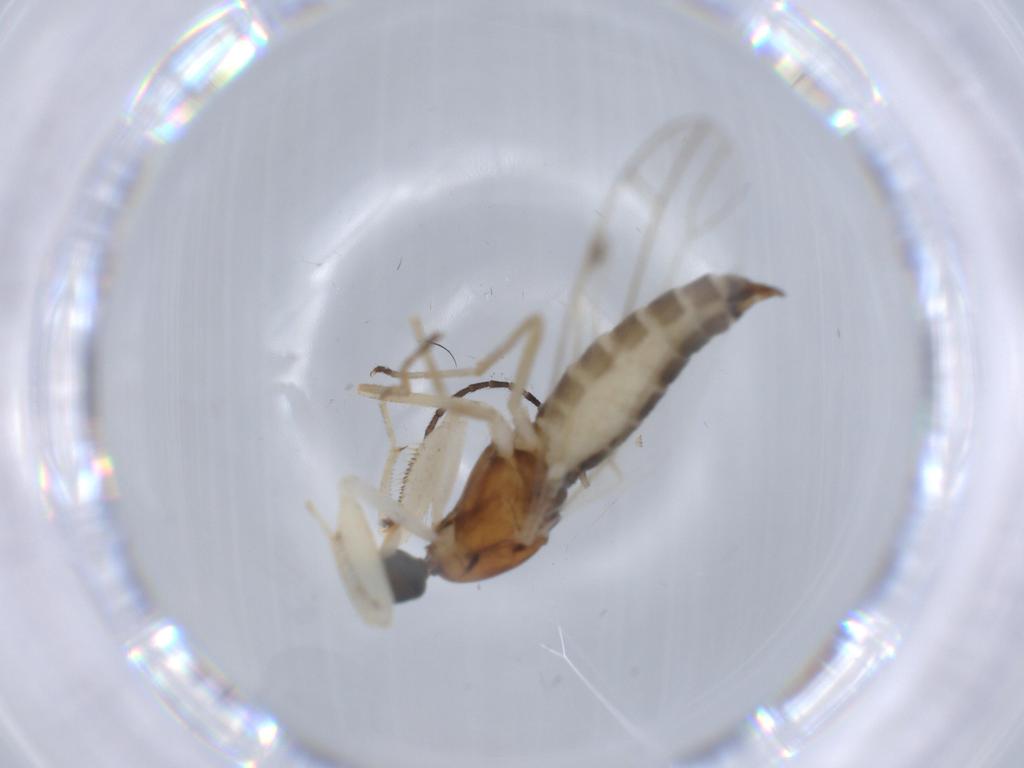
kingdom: Animalia
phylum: Arthropoda
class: Insecta
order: Diptera
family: Chironomidae
